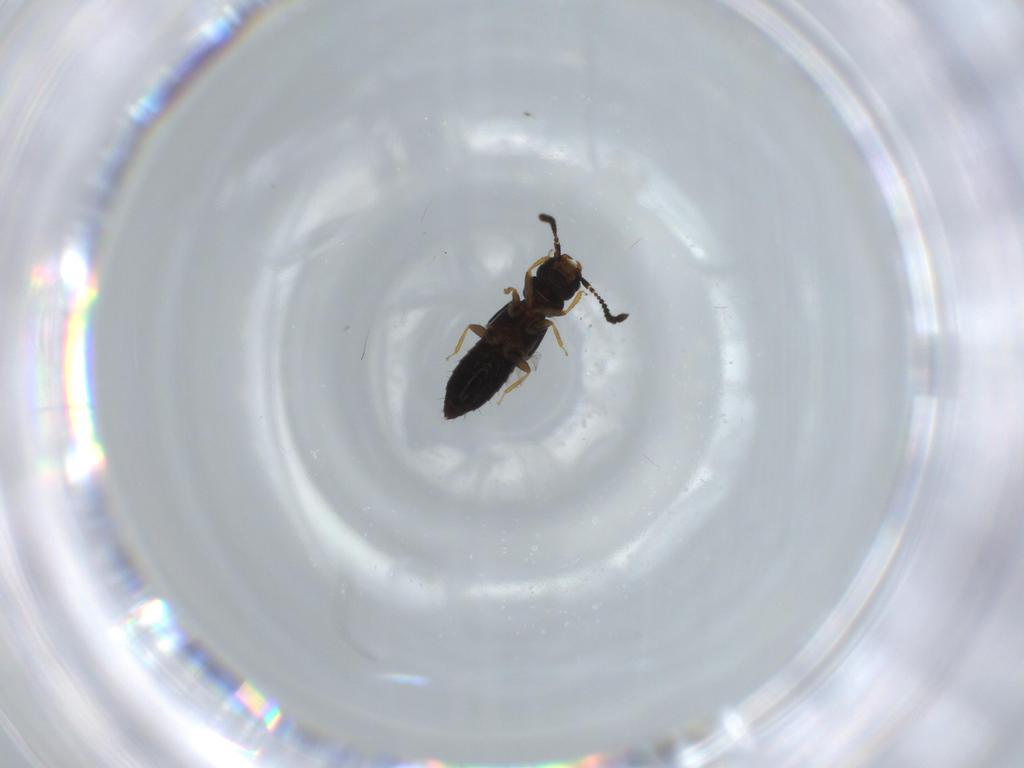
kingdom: Animalia
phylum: Arthropoda
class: Insecta
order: Coleoptera
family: Staphylinidae
